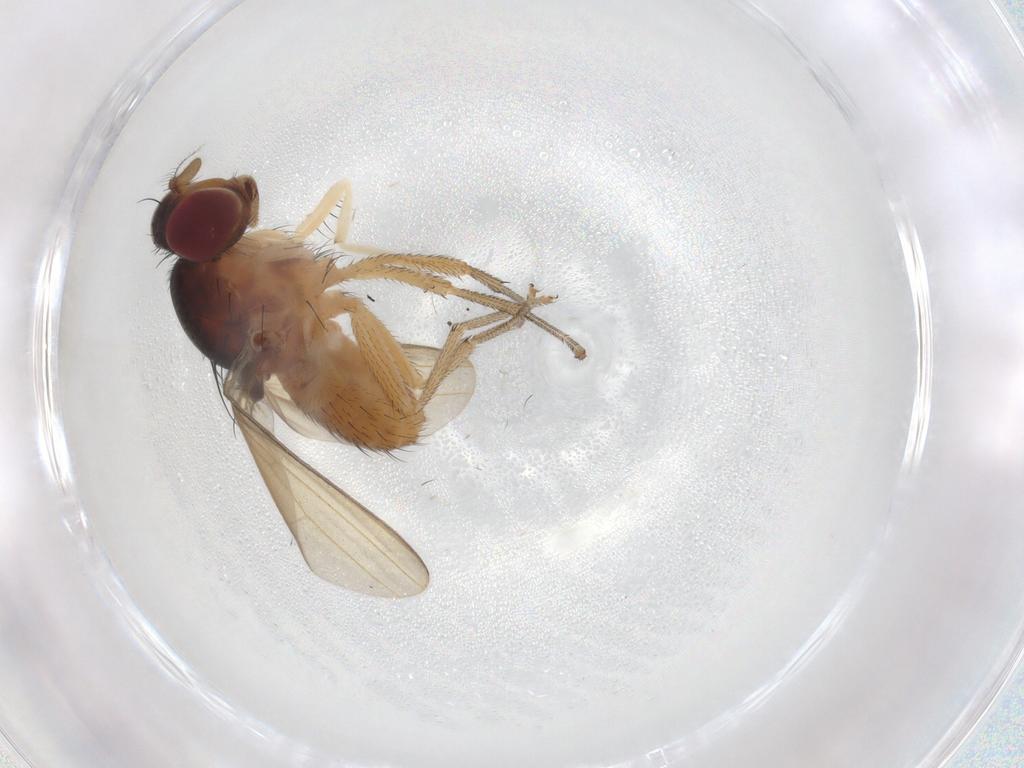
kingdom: Animalia
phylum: Arthropoda
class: Insecta
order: Diptera
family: Lauxaniidae
